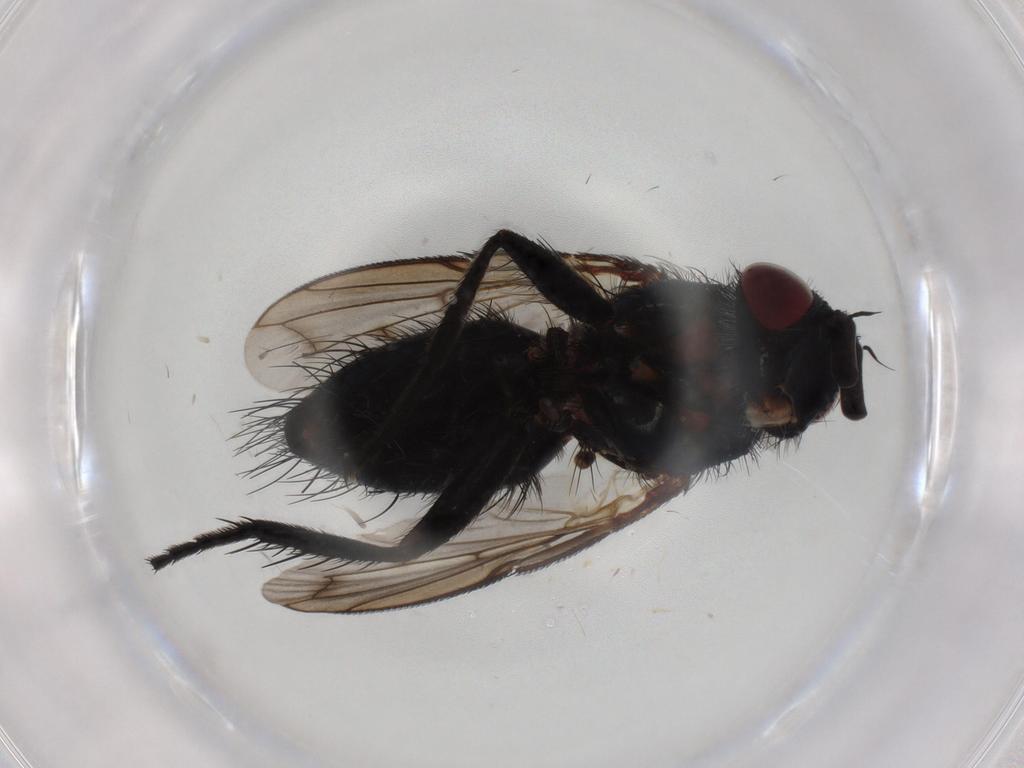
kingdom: Animalia
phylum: Arthropoda
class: Insecta
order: Diptera
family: Tachinidae
